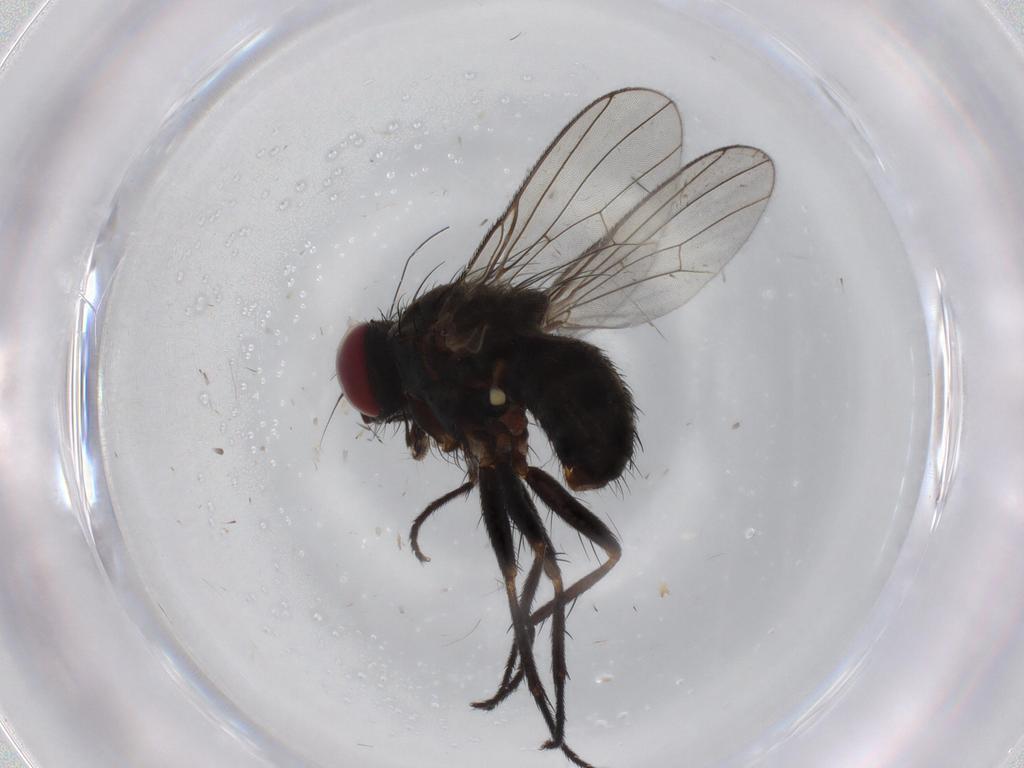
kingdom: Animalia
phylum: Arthropoda
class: Insecta
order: Diptera
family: Muscidae
